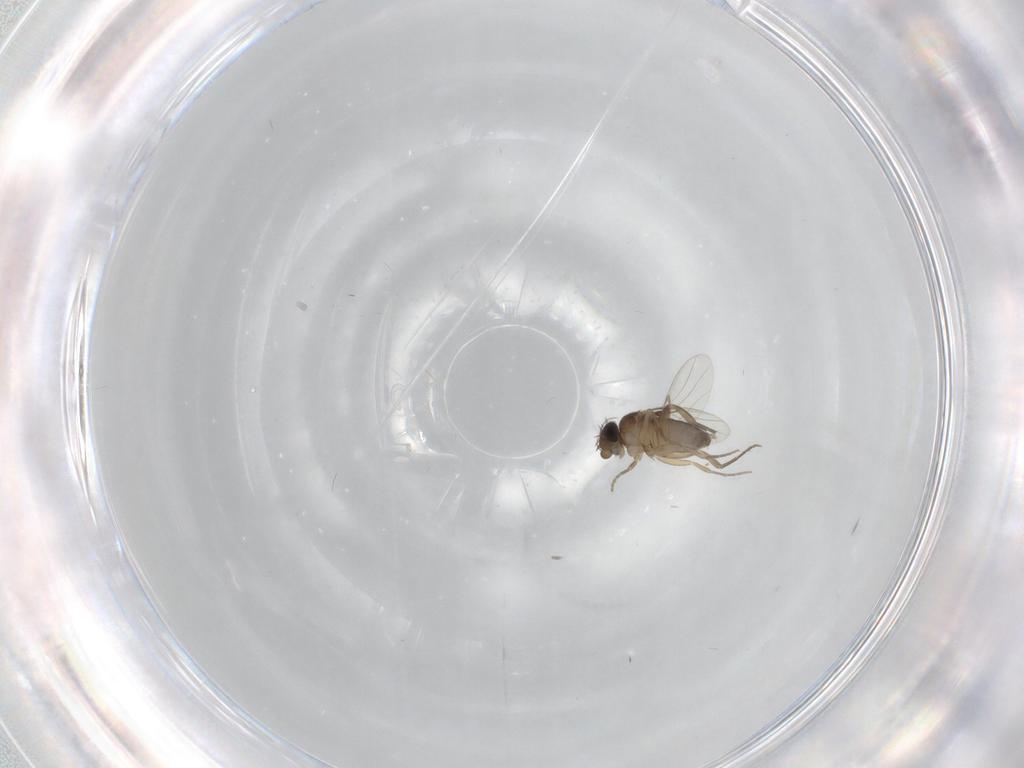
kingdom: Animalia
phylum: Arthropoda
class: Insecta
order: Diptera
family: Phoridae
